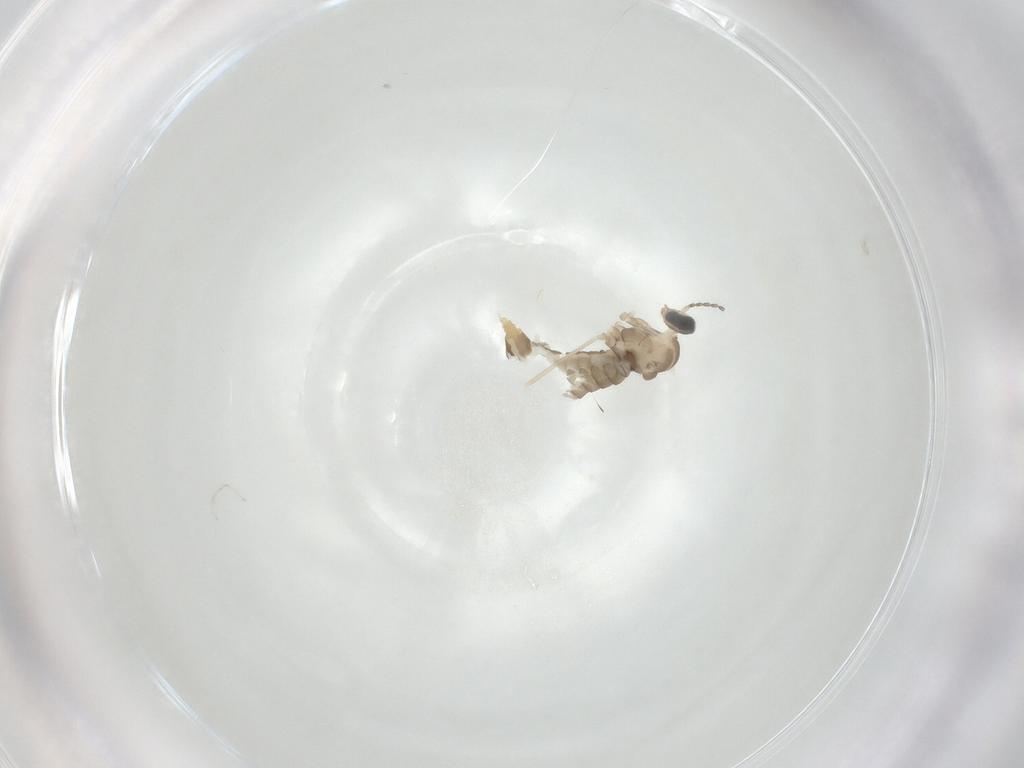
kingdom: Animalia
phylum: Arthropoda
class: Insecta
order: Diptera
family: Cecidomyiidae
